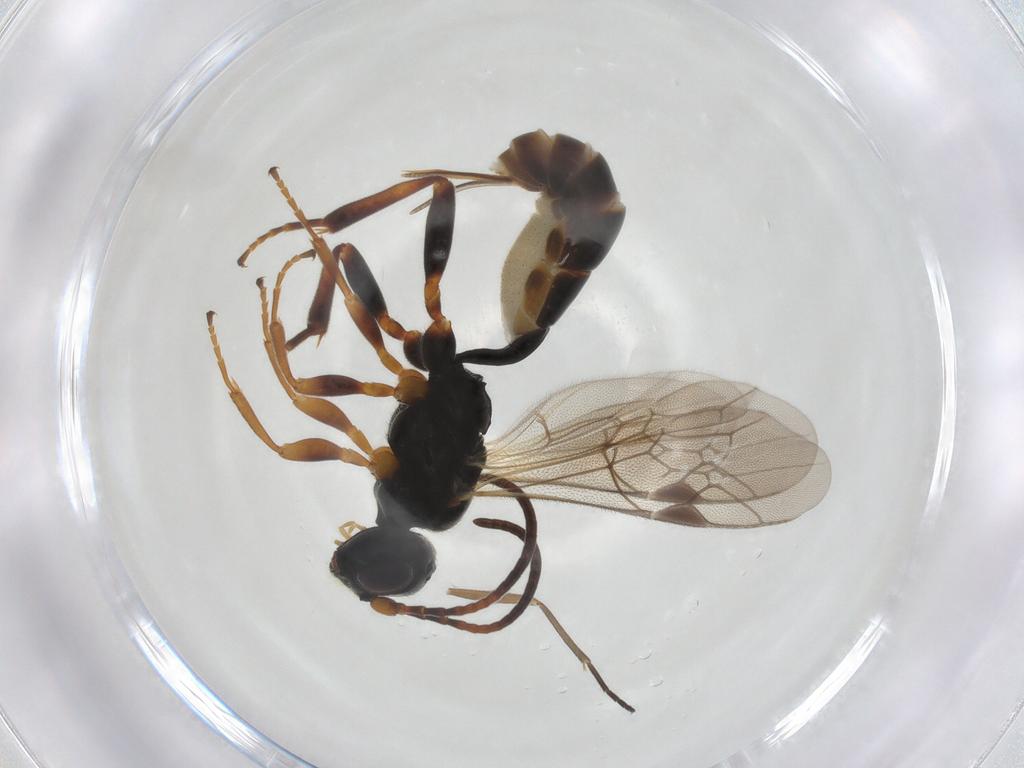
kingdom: Animalia
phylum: Arthropoda
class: Insecta
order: Hymenoptera
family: Ichneumonidae
